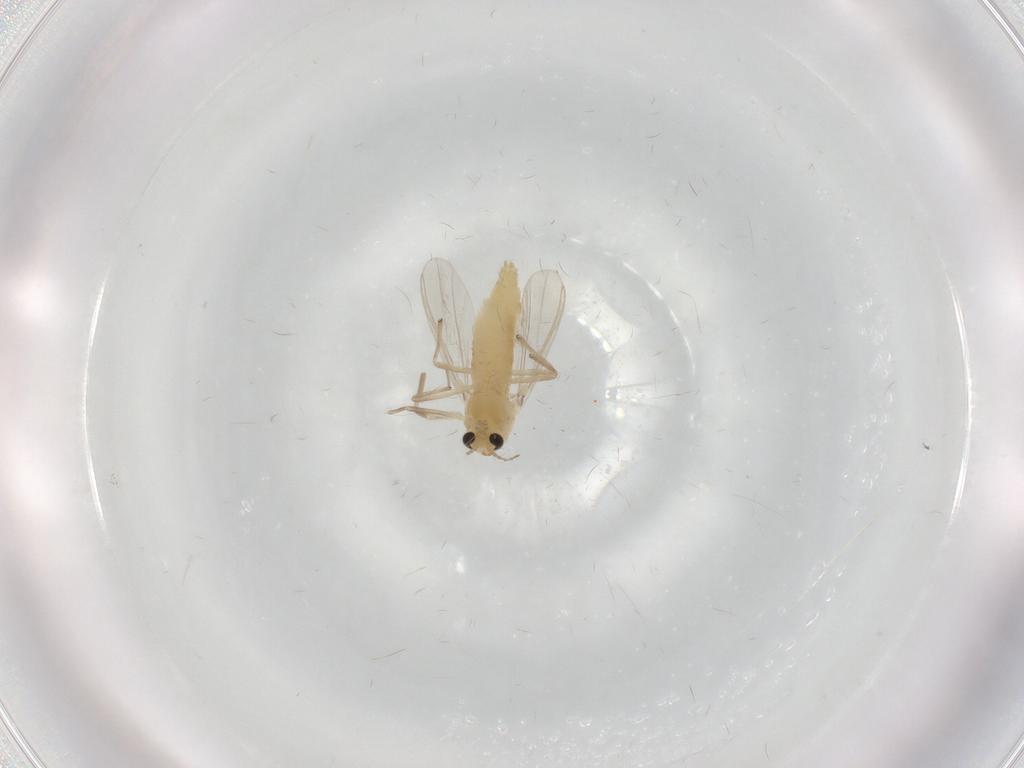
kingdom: Animalia
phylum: Arthropoda
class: Insecta
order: Diptera
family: Chironomidae
